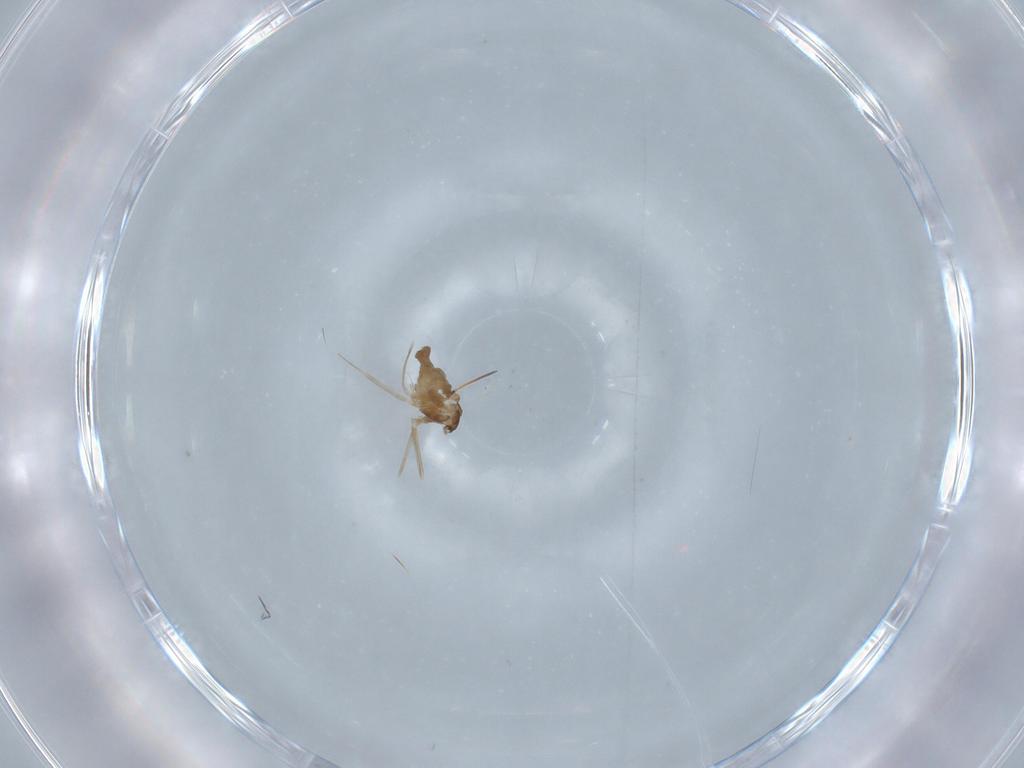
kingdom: Animalia
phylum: Arthropoda
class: Insecta
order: Diptera
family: Cecidomyiidae
